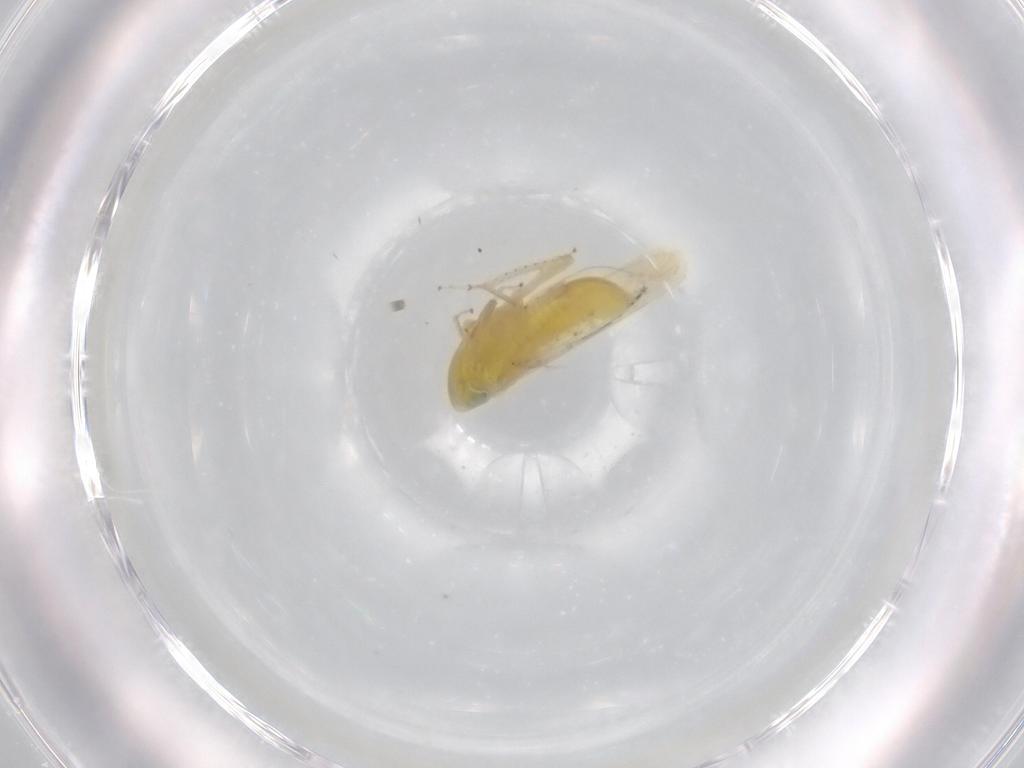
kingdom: Animalia
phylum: Arthropoda
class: Insecta
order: Hemiptera
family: Cicadellidae
